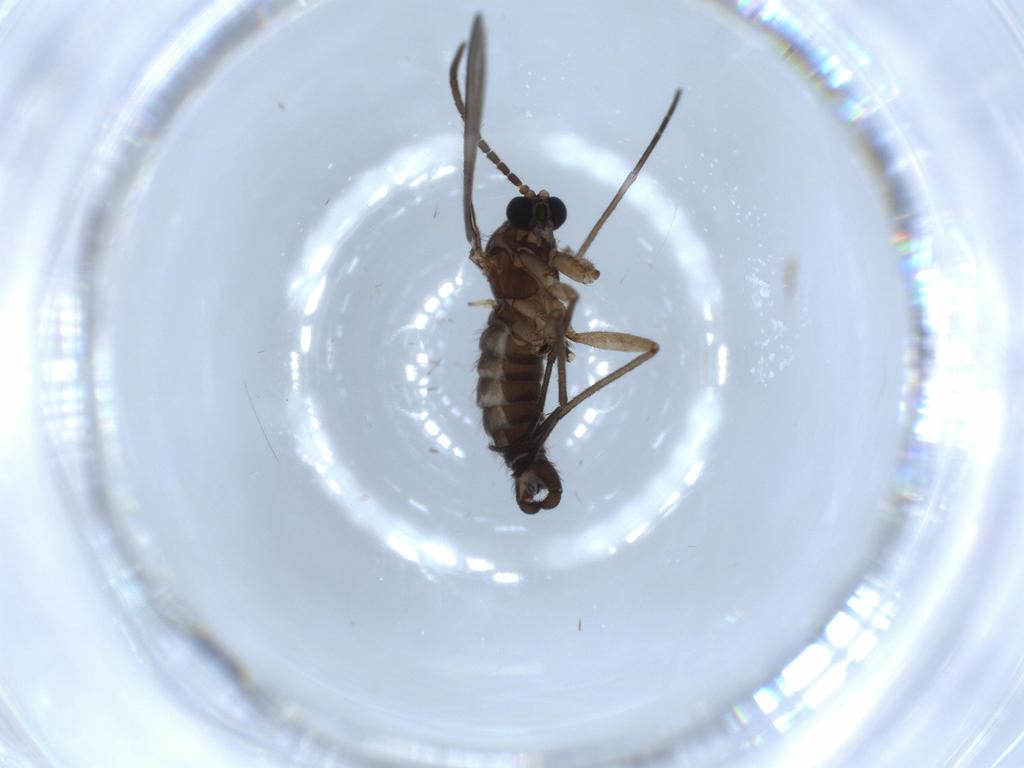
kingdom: Animalia
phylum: Arthropoda
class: Insecta
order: Diptera
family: Sciaridae
